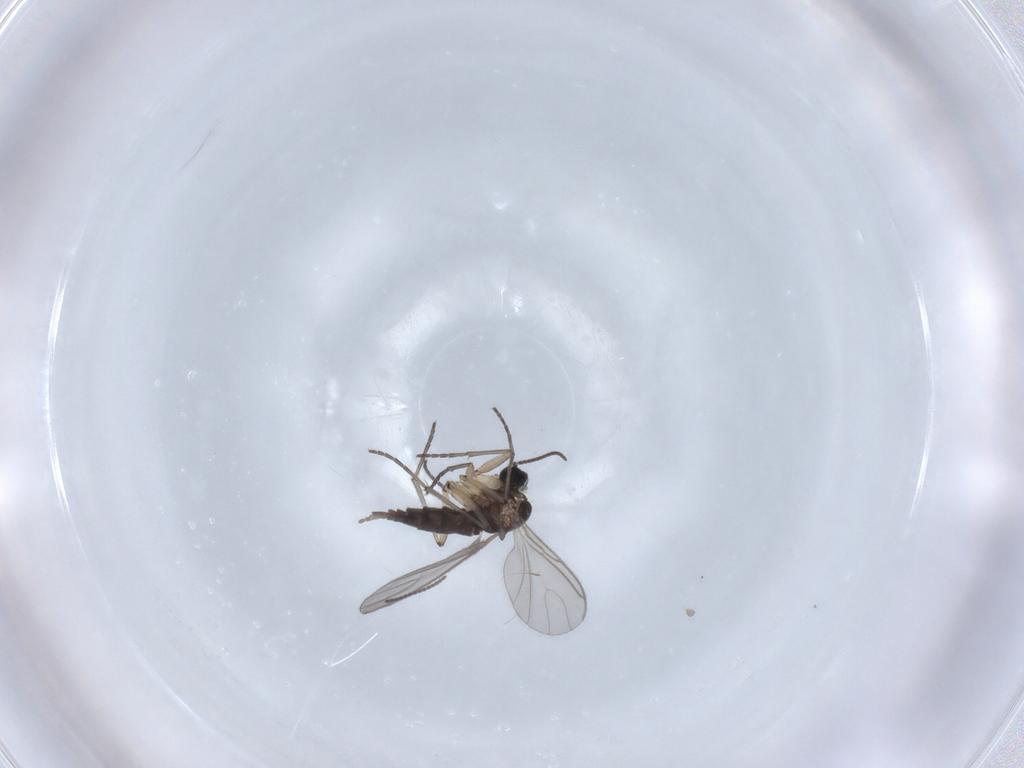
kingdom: Animalia
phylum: Arthropoda
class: Insecta
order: Diptera
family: Sciaridae
